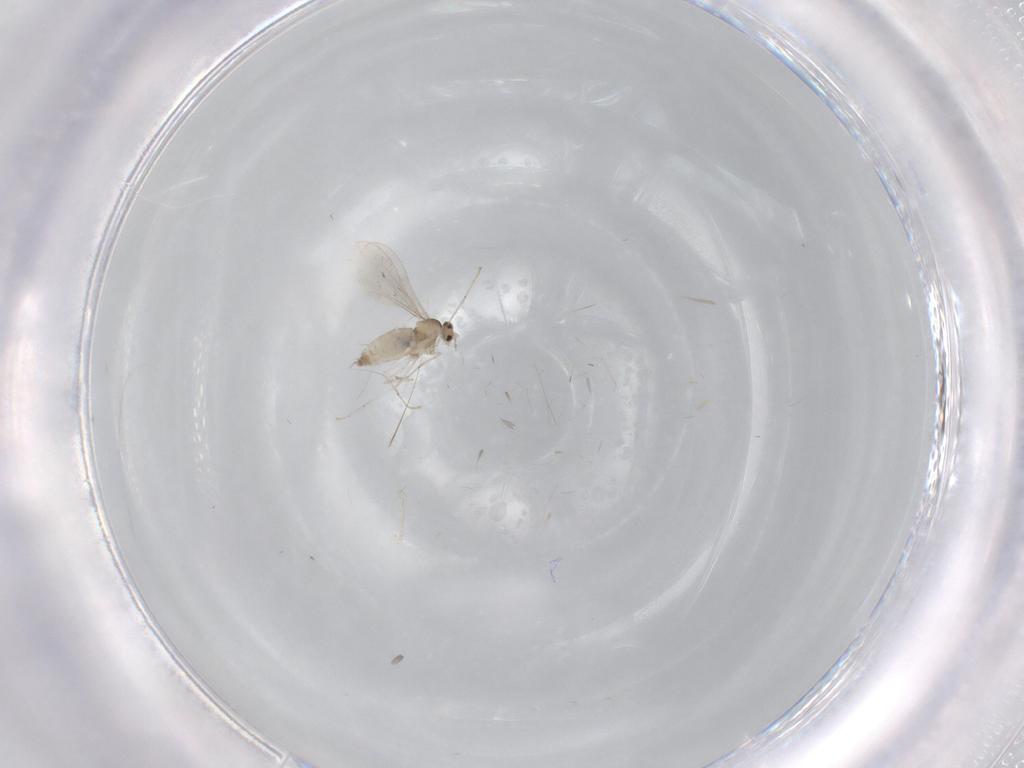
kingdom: Animalia
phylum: Arthropoda
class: Insecta
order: Diptera
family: Cecidomyiidae
